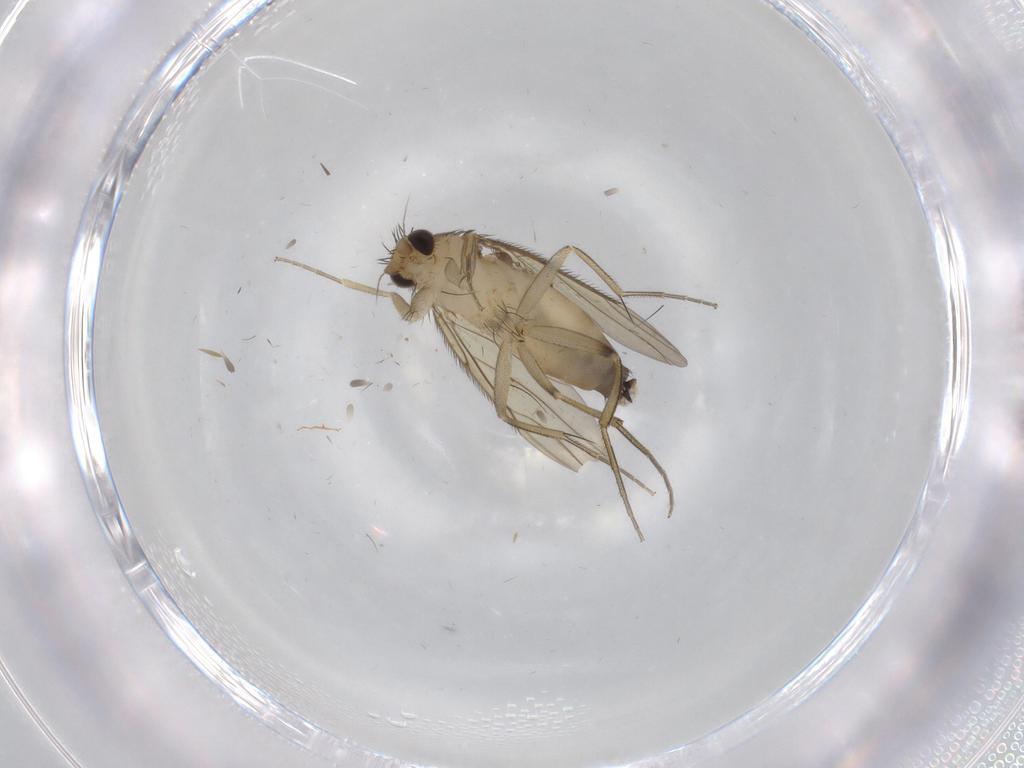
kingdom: Animalia
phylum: Arthropoda
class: Insecta
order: Diptera
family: Phoridae
